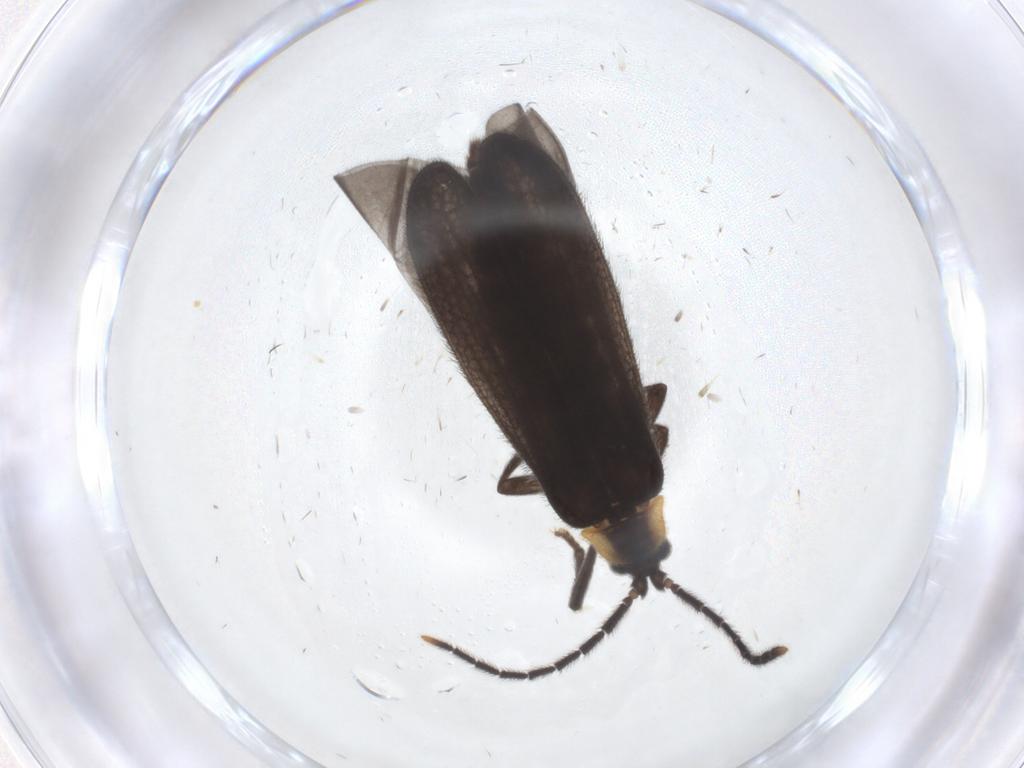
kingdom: Animalia
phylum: Arthropoda
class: Insecta
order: Coleoptera
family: Lycidae
